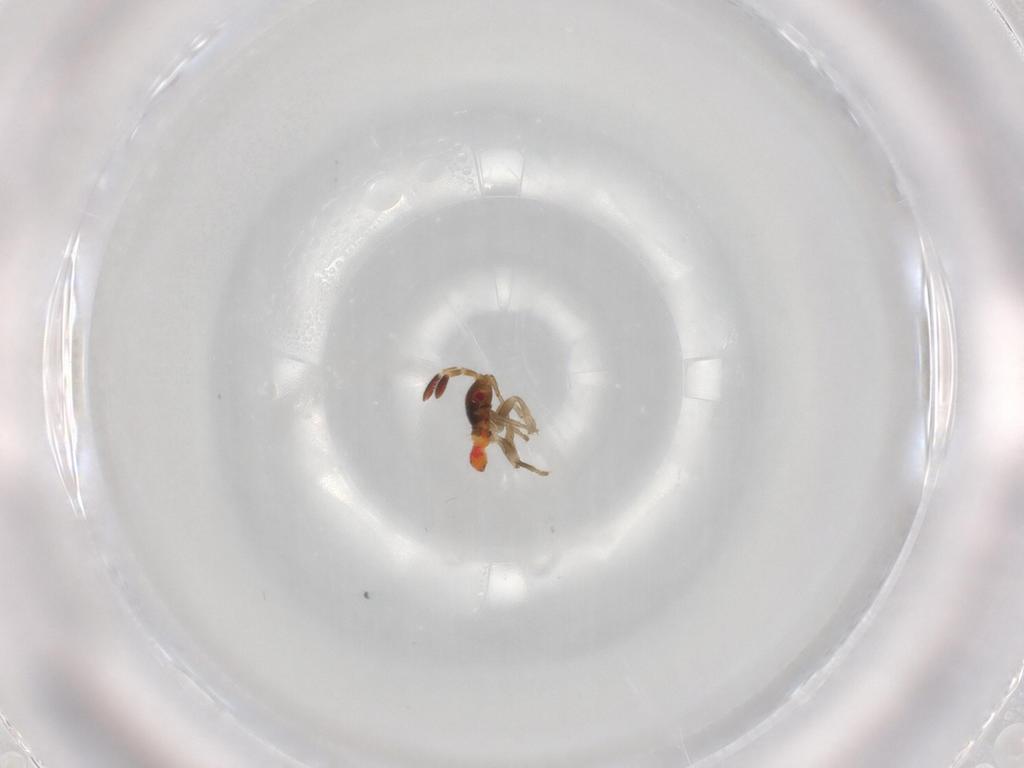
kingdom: Animalia
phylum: Arthropoda
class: Insecta
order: Hemiptera
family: Rhyparochromidae
